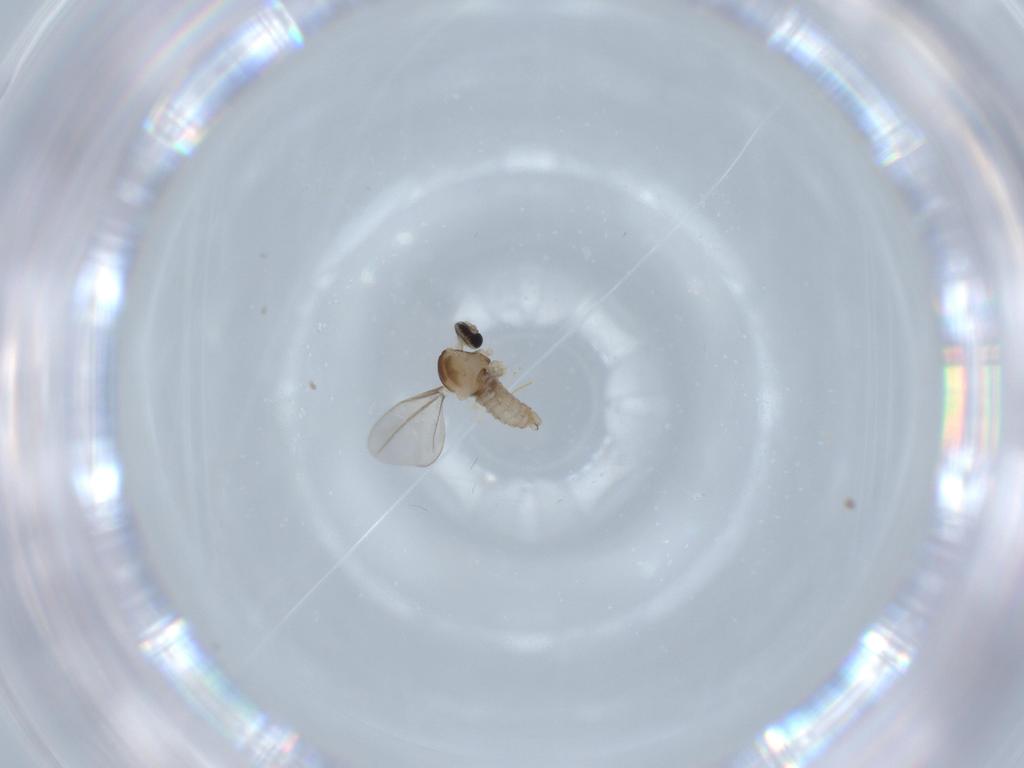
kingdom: Animalia
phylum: Arthropoda
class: Insecta
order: Diptera
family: Cecidomyiidae
